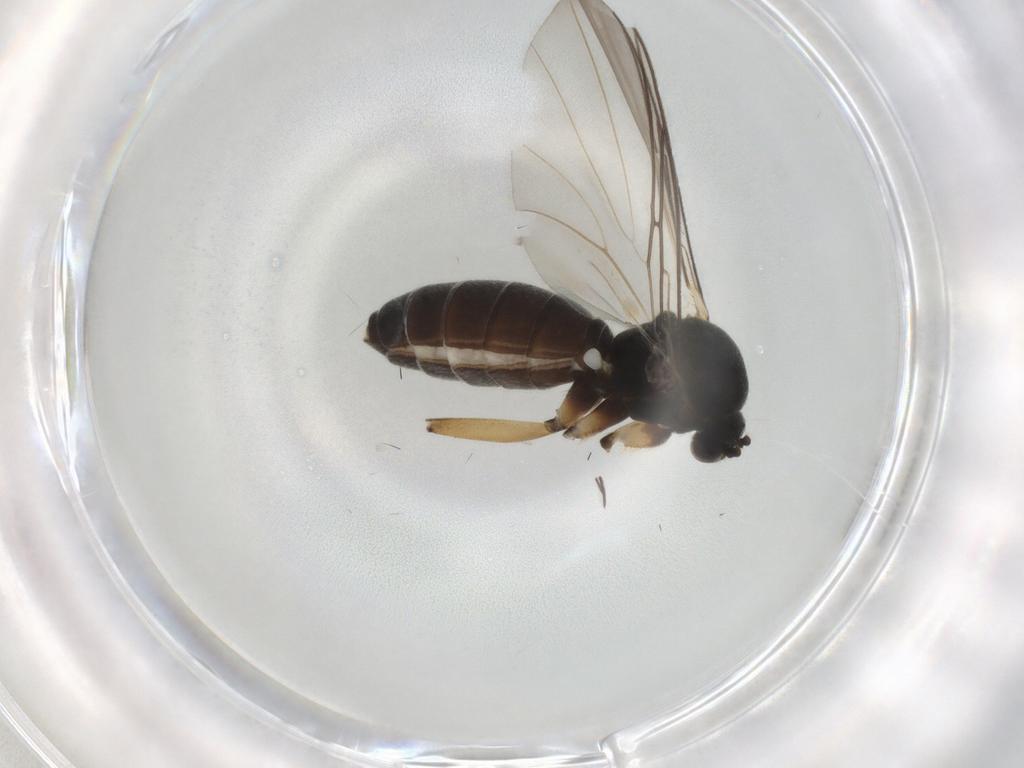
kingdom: Animalia
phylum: Arthropoda
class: Insecta
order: Diptera
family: Mycetophilidae
